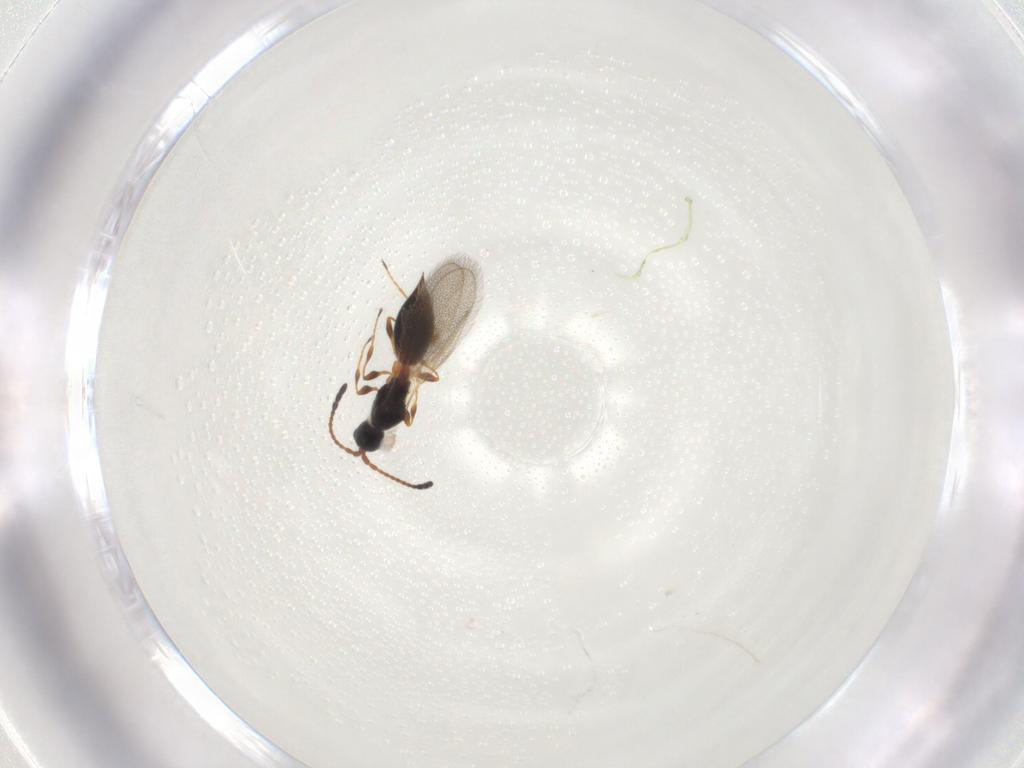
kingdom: Animalia
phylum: Arthropoda
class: Insecta
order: Hymenoptera
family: Diapriidae
